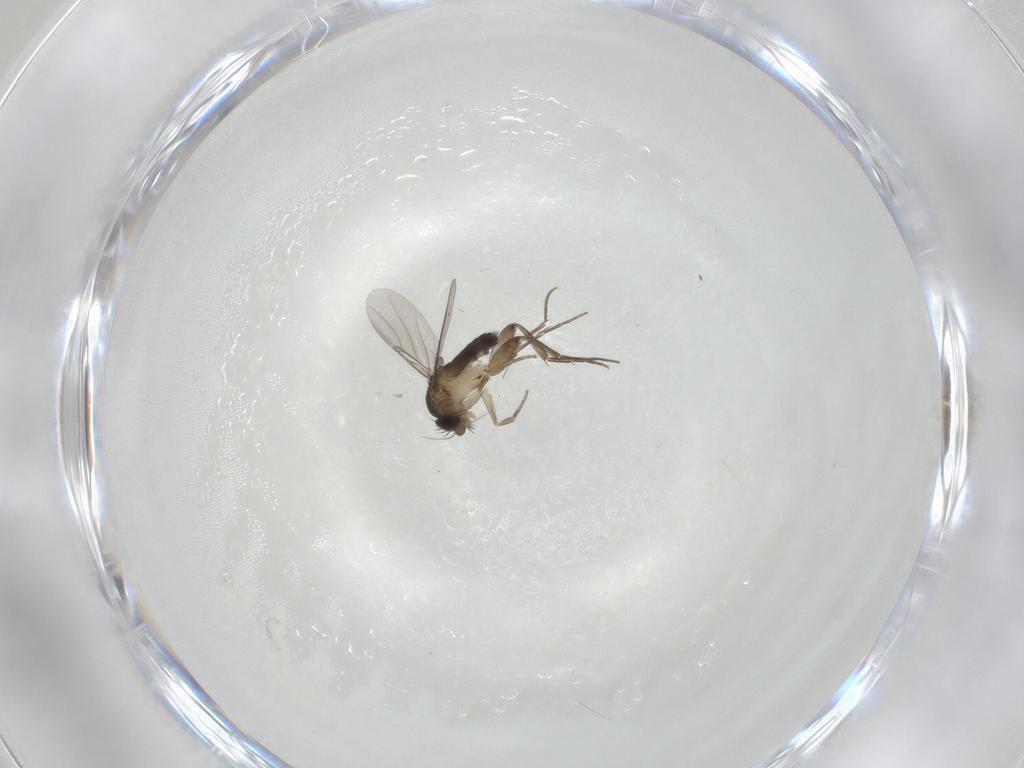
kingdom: Animalia
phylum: Arthropoda
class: Insecta
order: Diptera
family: Phoridae
